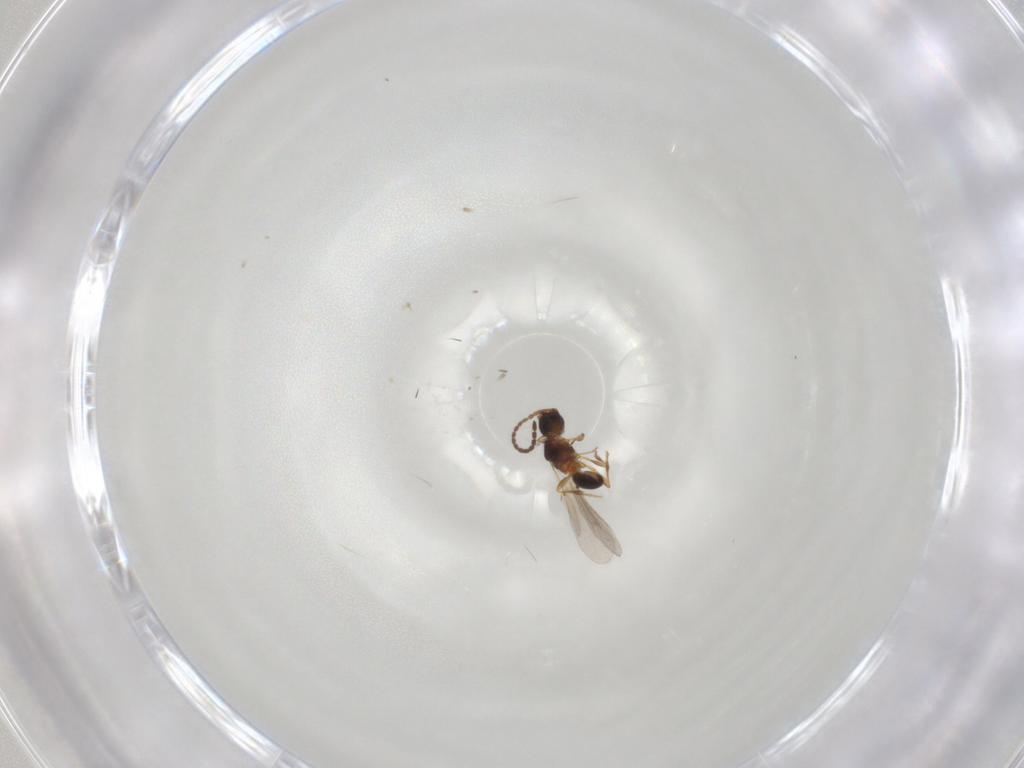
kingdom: Animalia
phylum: Arthropoda
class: Insecta
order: Hymenoptera
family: Diapriidae
